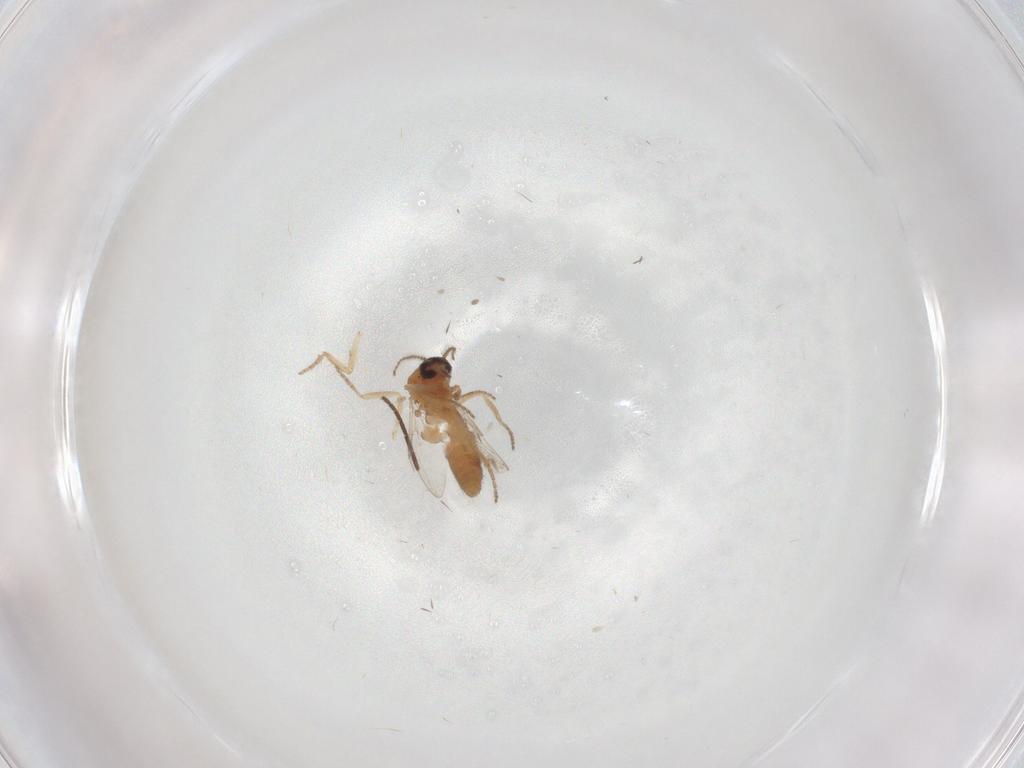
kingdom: Animalia
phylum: Arthropoda
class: Insecta
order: Diptera
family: Ceratopogonidae
